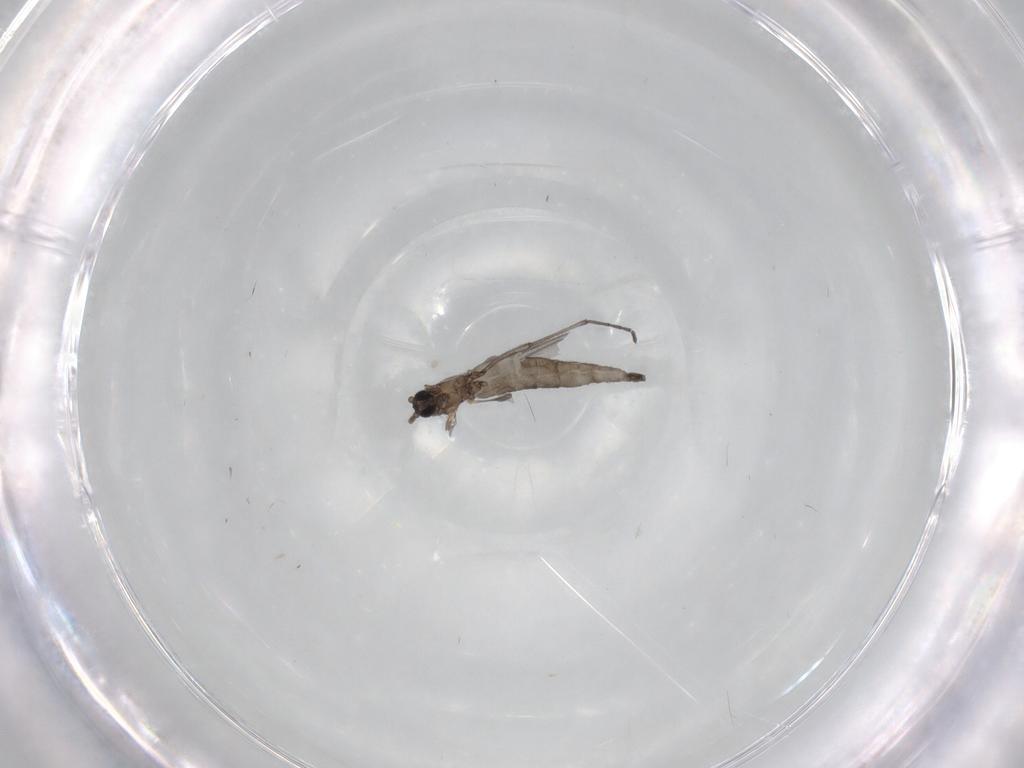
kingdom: Animalia
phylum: Arthropoda
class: Insecta
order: Diptera
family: Sciaridae
